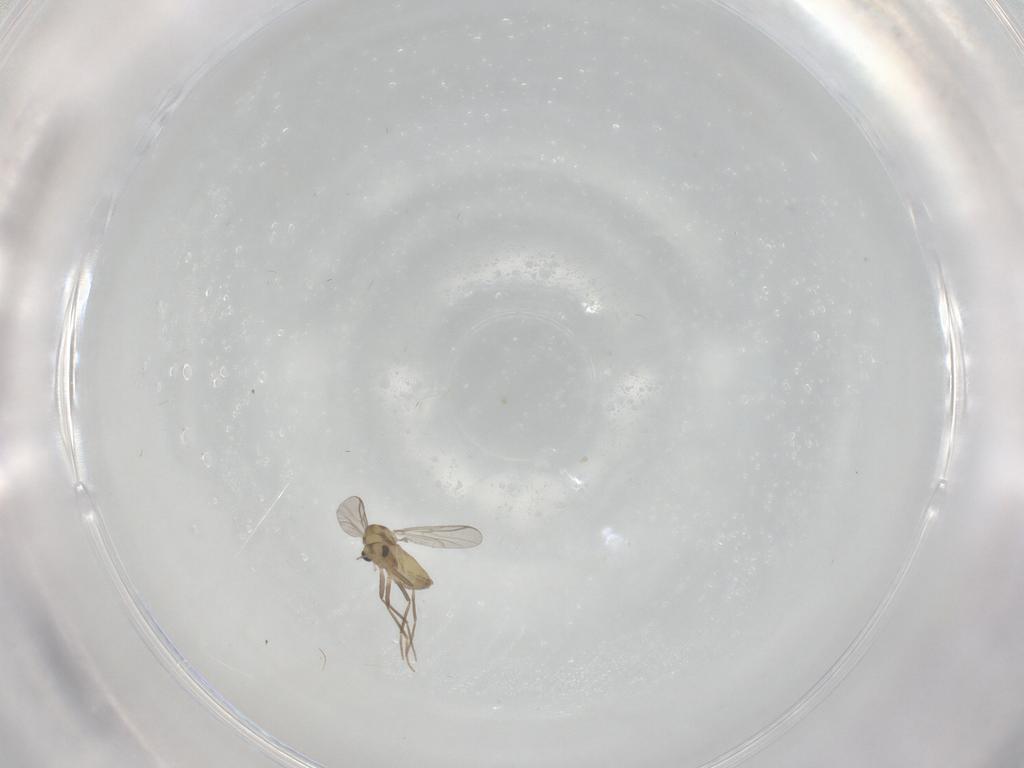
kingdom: Animalia
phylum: Arthropoda
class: Insecta
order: Diptera
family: Chironomidae
